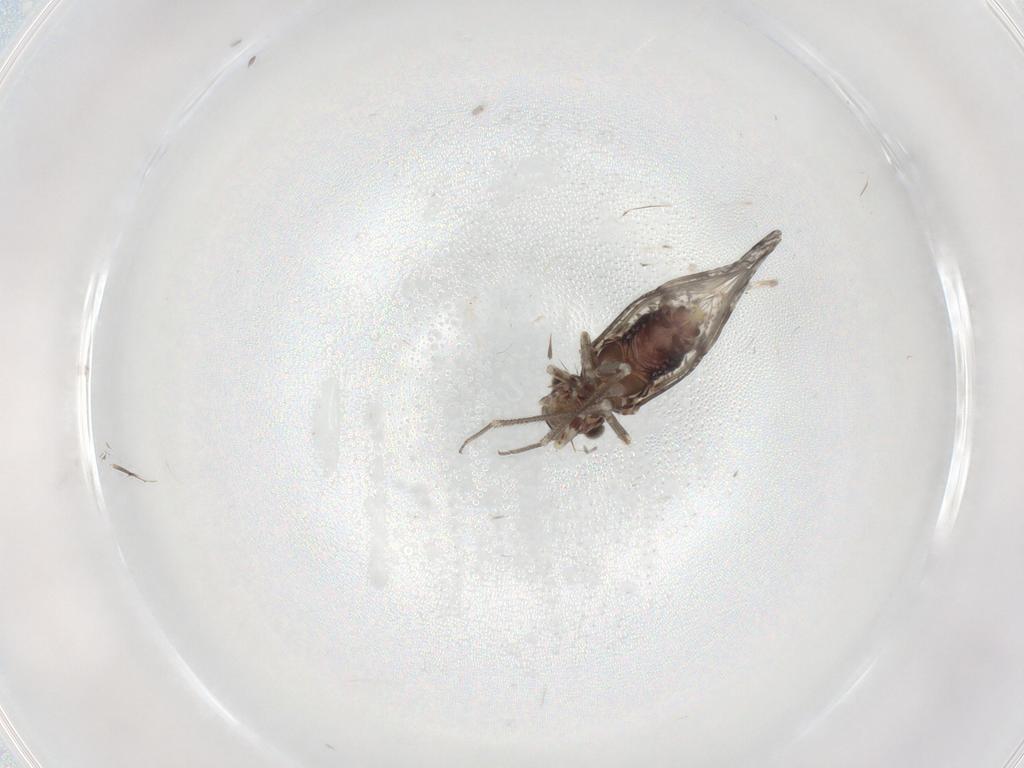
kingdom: Animalia
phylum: Arthropoda
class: Insecta
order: Psocodea
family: Psocidae
